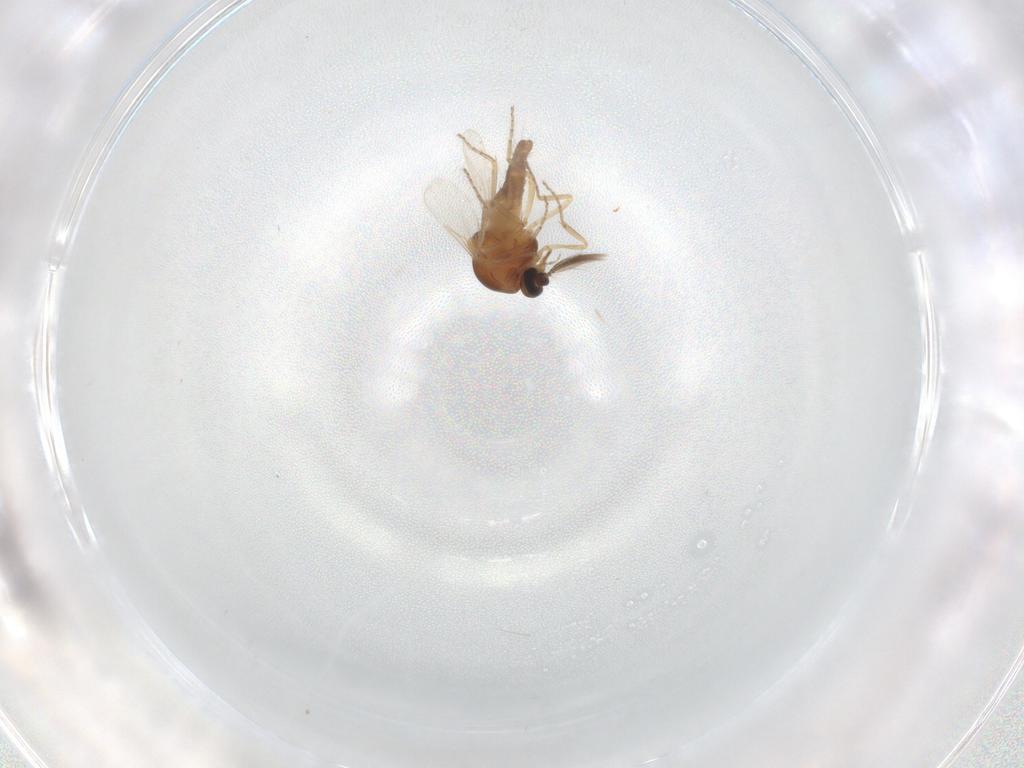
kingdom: Animalia
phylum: Arthropoda
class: Insecta
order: Diptera
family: Ceratopogonidae
